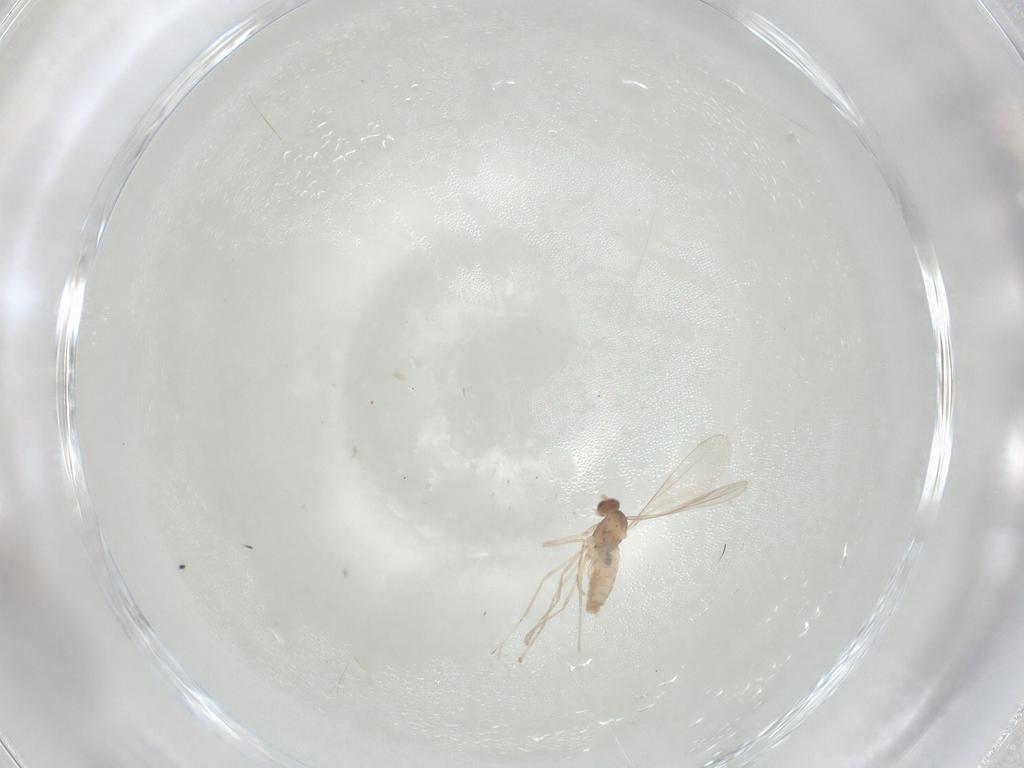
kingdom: Animalia
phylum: Arthropoda
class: Insecta
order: Diptera
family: Cecidomyiidae
